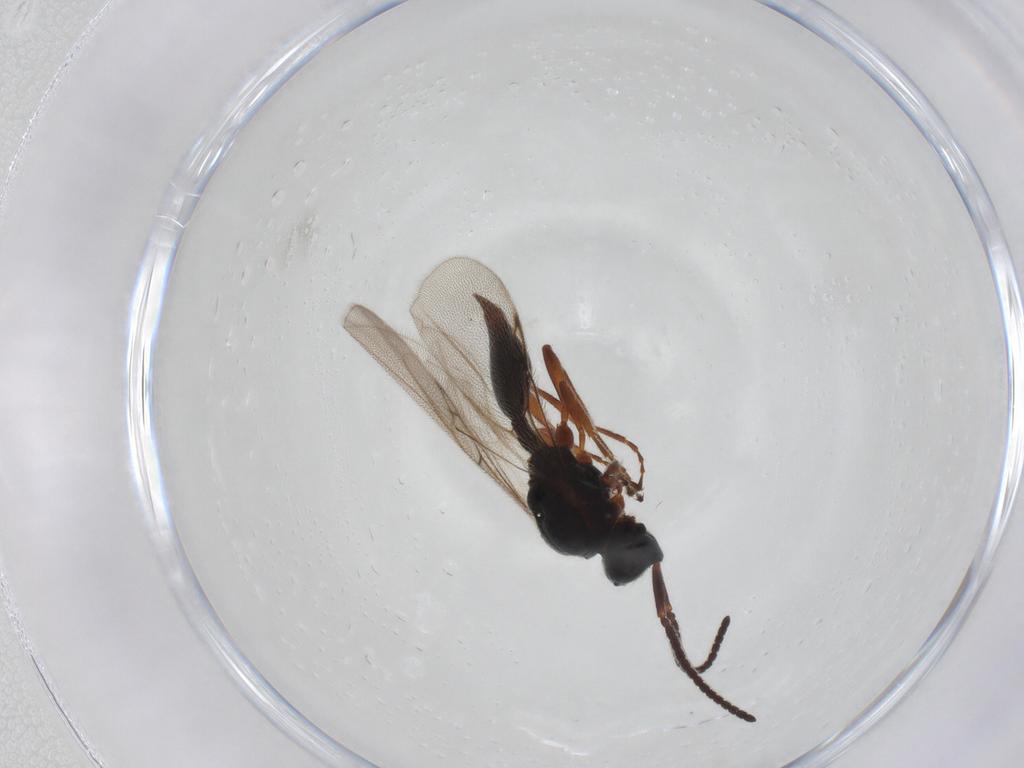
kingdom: Animalia
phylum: Arthropoda
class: Insecta
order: Hymenoptera
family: Diapriidae
